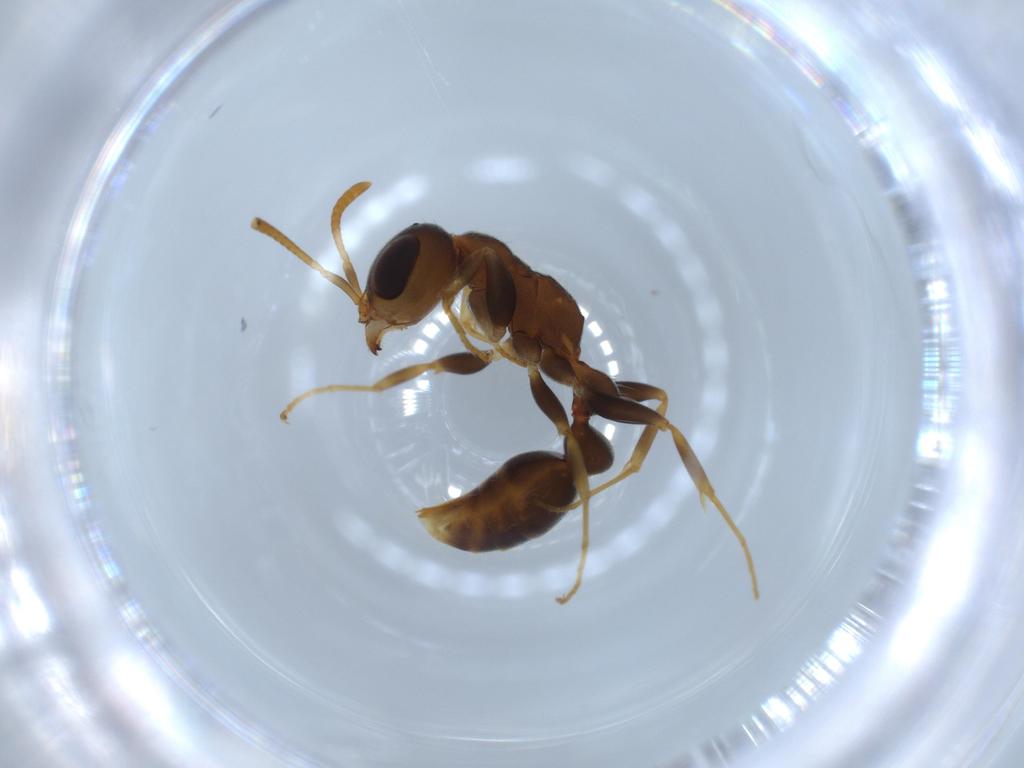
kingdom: Animalia
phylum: Arthropoda
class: Insecta
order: Hymenoptera
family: Formicidae
